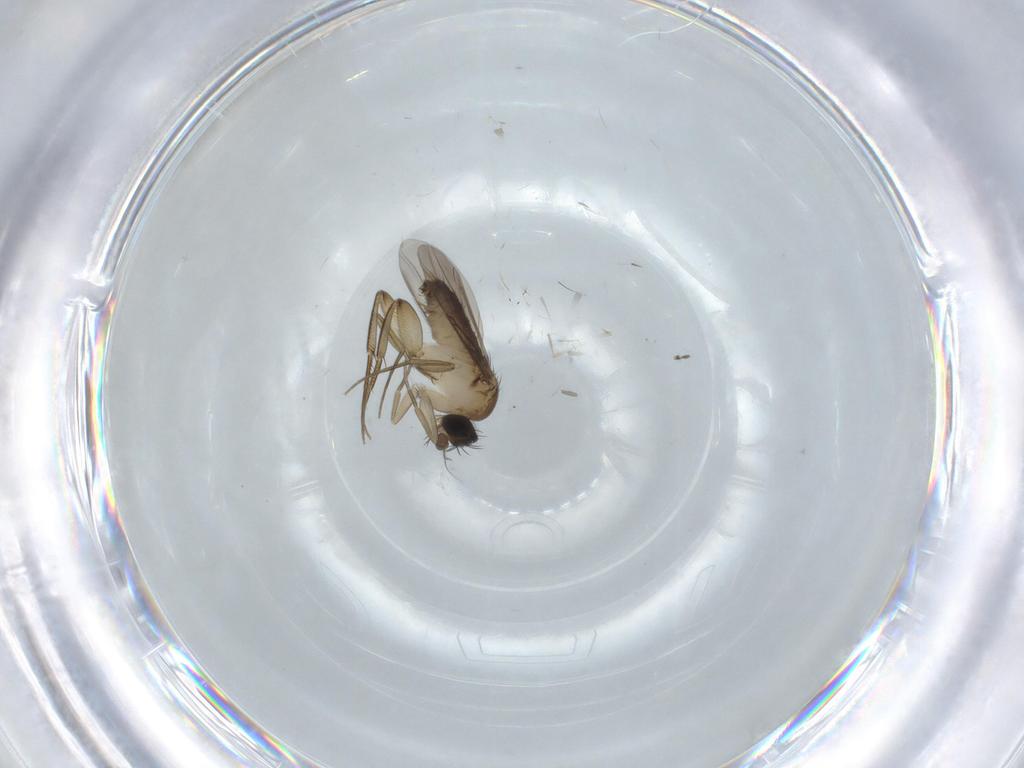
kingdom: Animalia
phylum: Arthropoda
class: Insecta
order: Diptera
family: Phoridae
